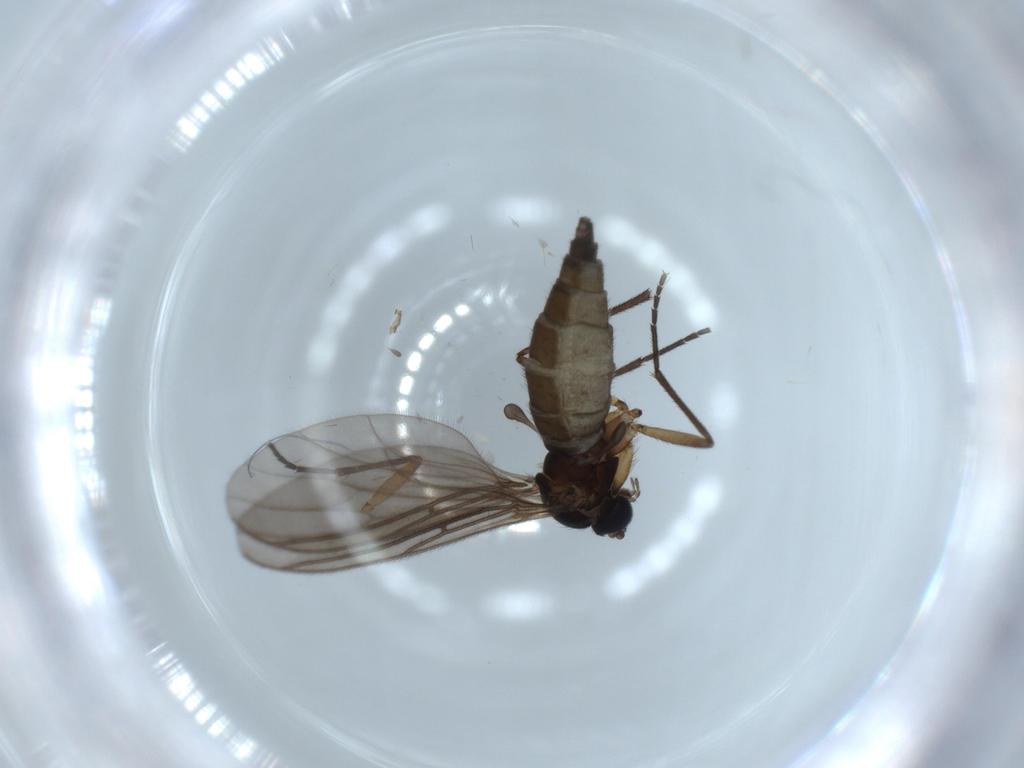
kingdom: Animalia
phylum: Arthropoda
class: Insecta
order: Diptera
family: Sciaridae
